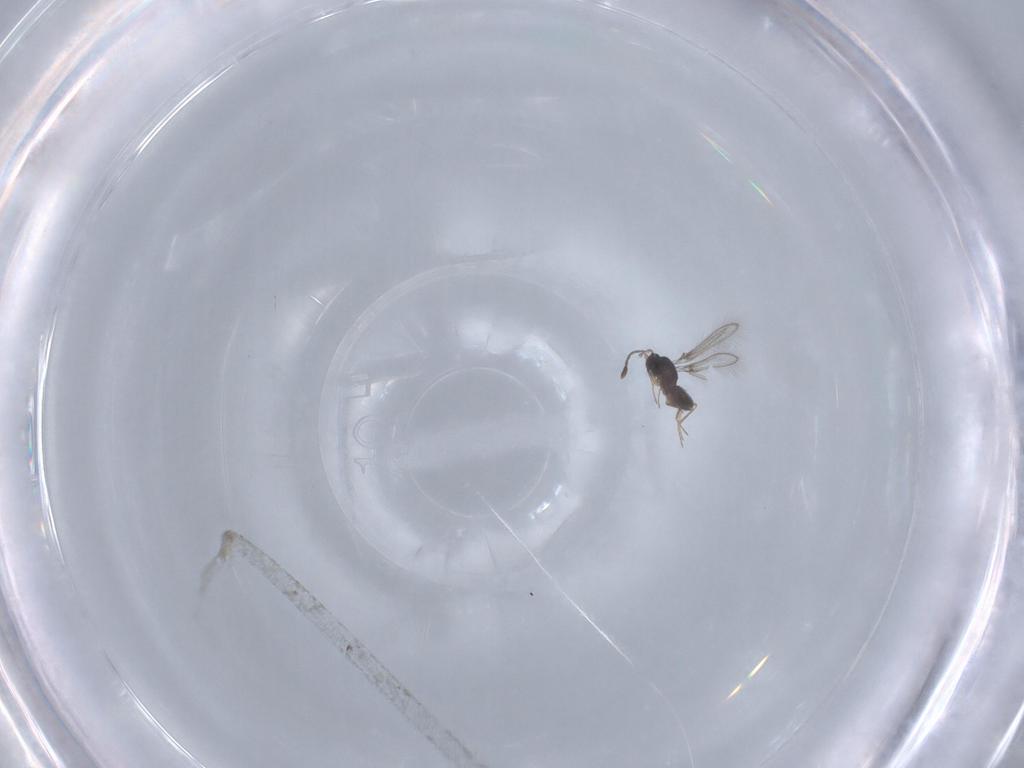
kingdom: Animalia
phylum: Arthropoda
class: Insecta
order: Hymenoptera
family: Mymaridae
